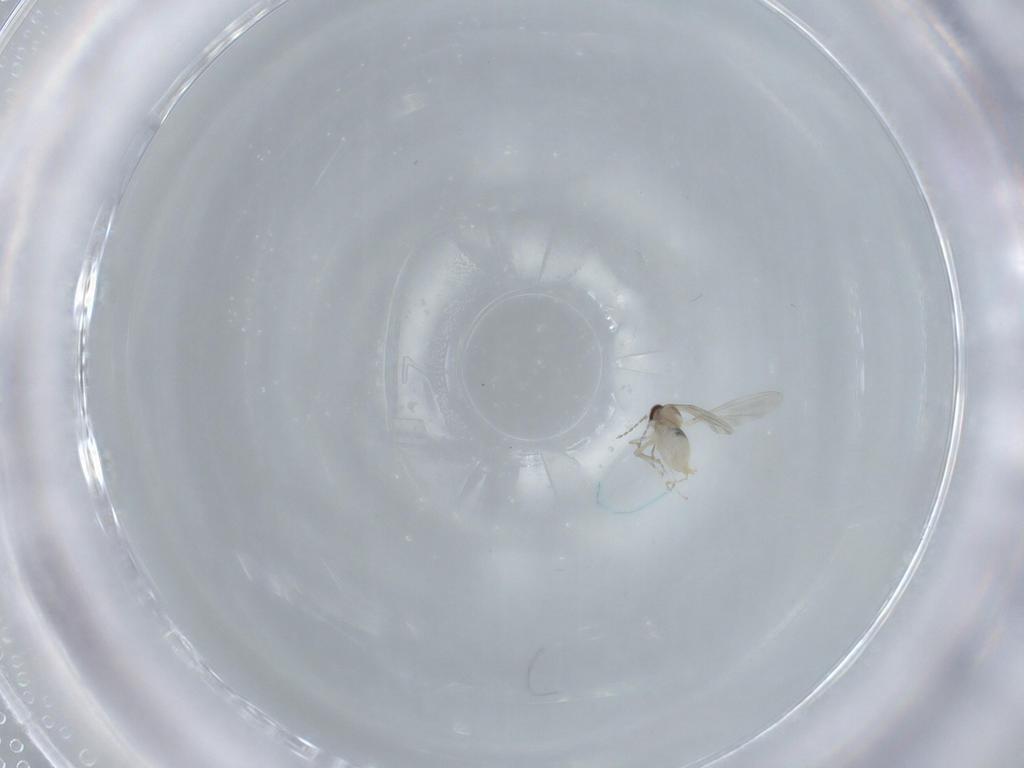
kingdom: Animalia
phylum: Arthropoda
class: Insecta
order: Diptera
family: Cecidomyiidae
